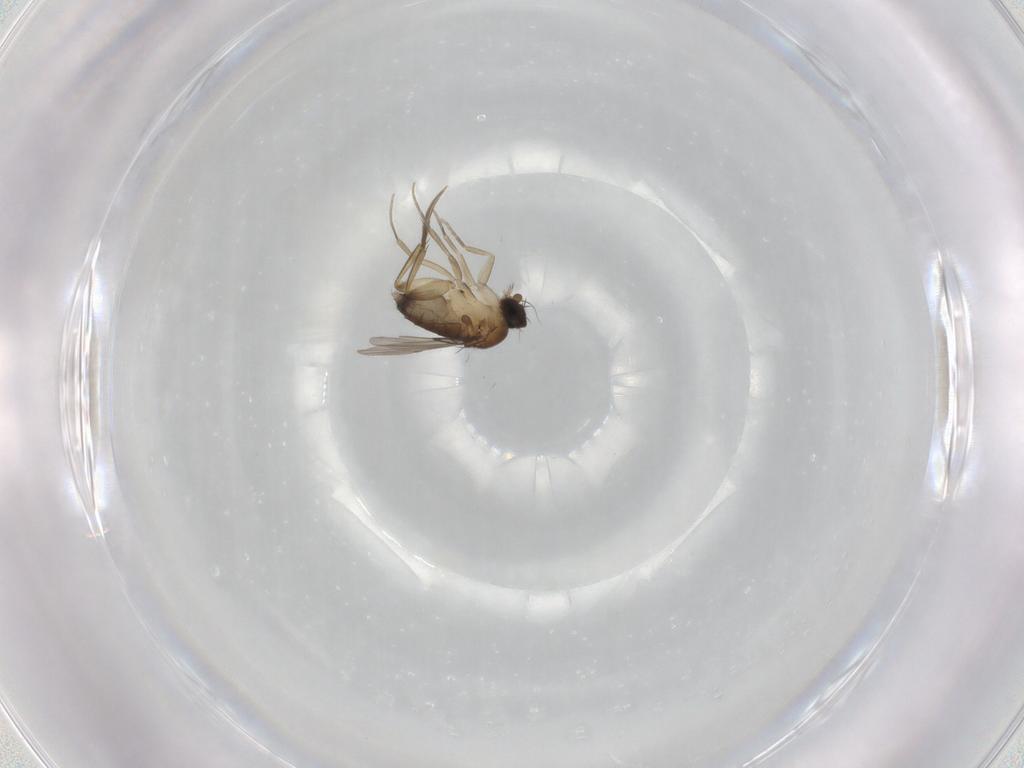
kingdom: Animalia
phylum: Arthropoda
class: Insecta
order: Diptera
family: Phoridae
